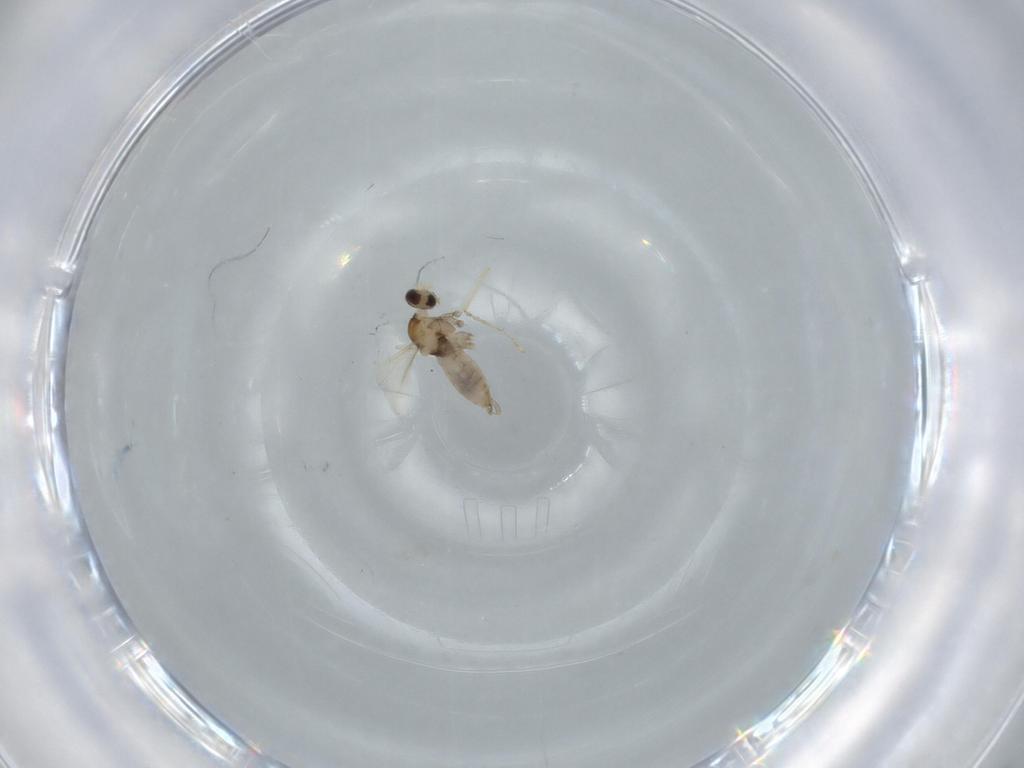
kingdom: Animalia
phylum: Arthropoda
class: Insecta
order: Diptera
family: Cecidomyiidae
